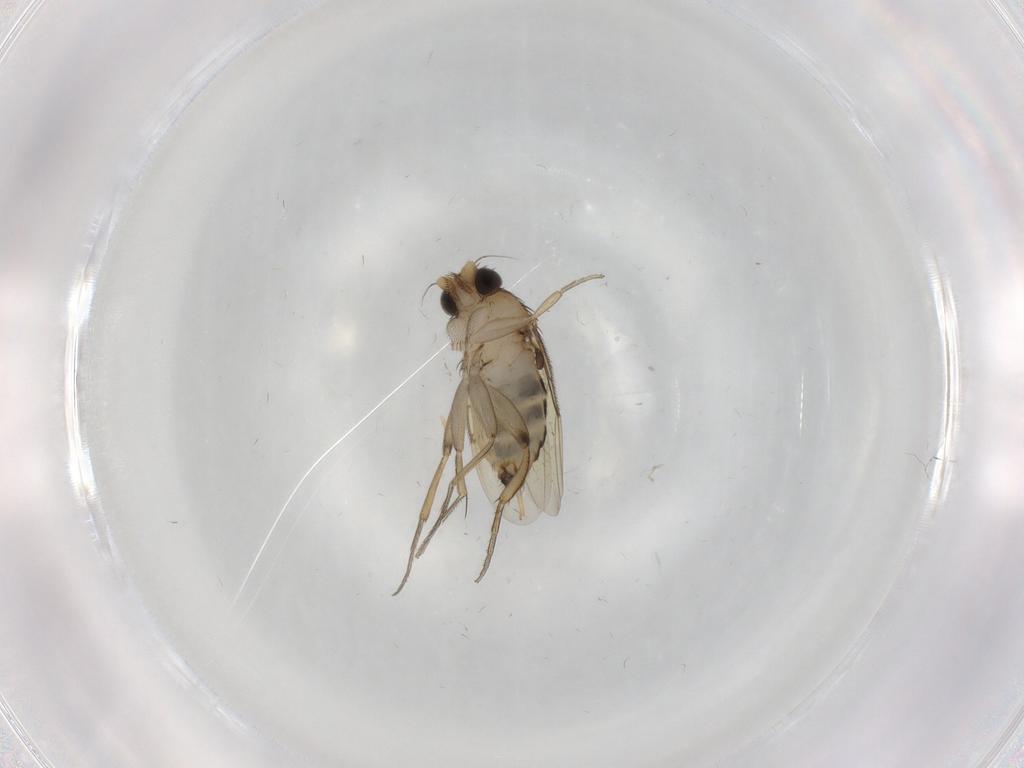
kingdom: Animalia
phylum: Arthropoda
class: Insecta
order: Diptera
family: Phoridae
